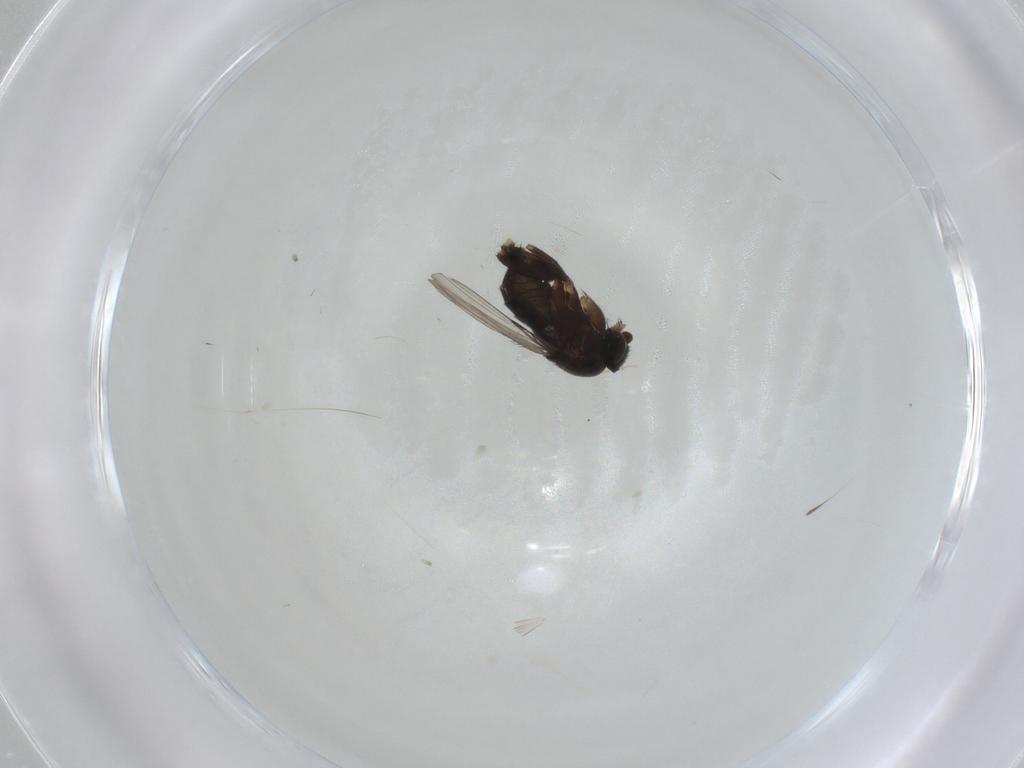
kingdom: Animalia
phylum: Arthropoda
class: Insecta
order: Diptera
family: Phoridae
